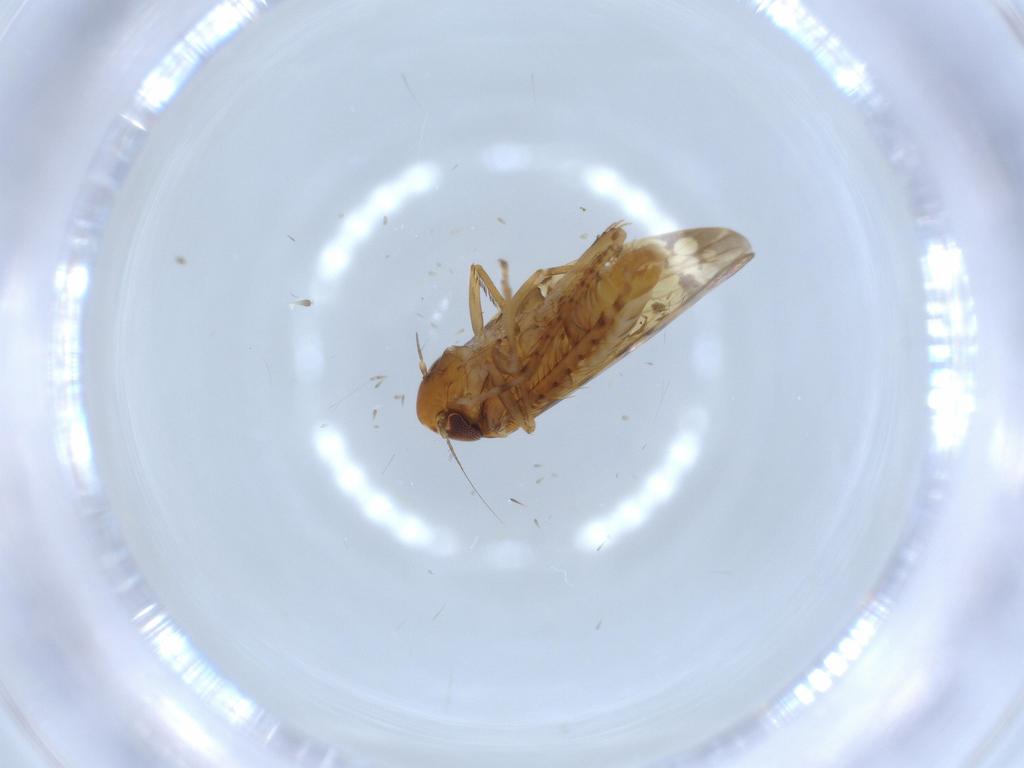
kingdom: Animalia
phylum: Arthropoda
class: Insecta
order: Hemiptera
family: Cicadellidae
